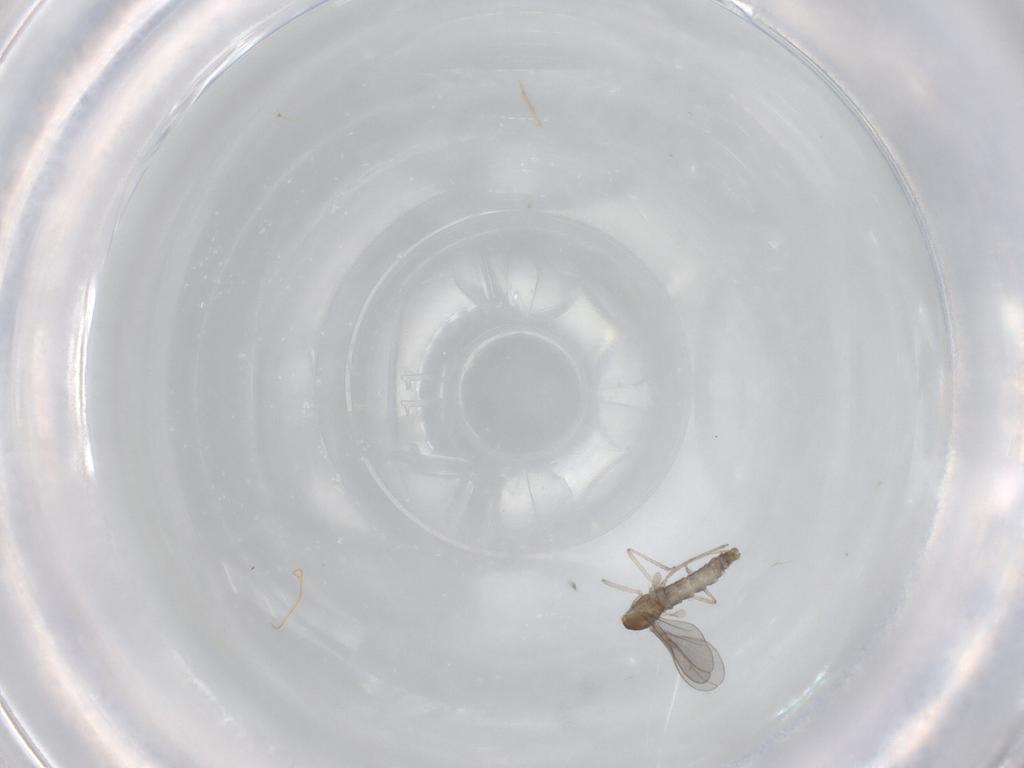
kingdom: Animalia
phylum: Arthropoda
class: Insecta
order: Diptera
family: Cecidomyiidae
